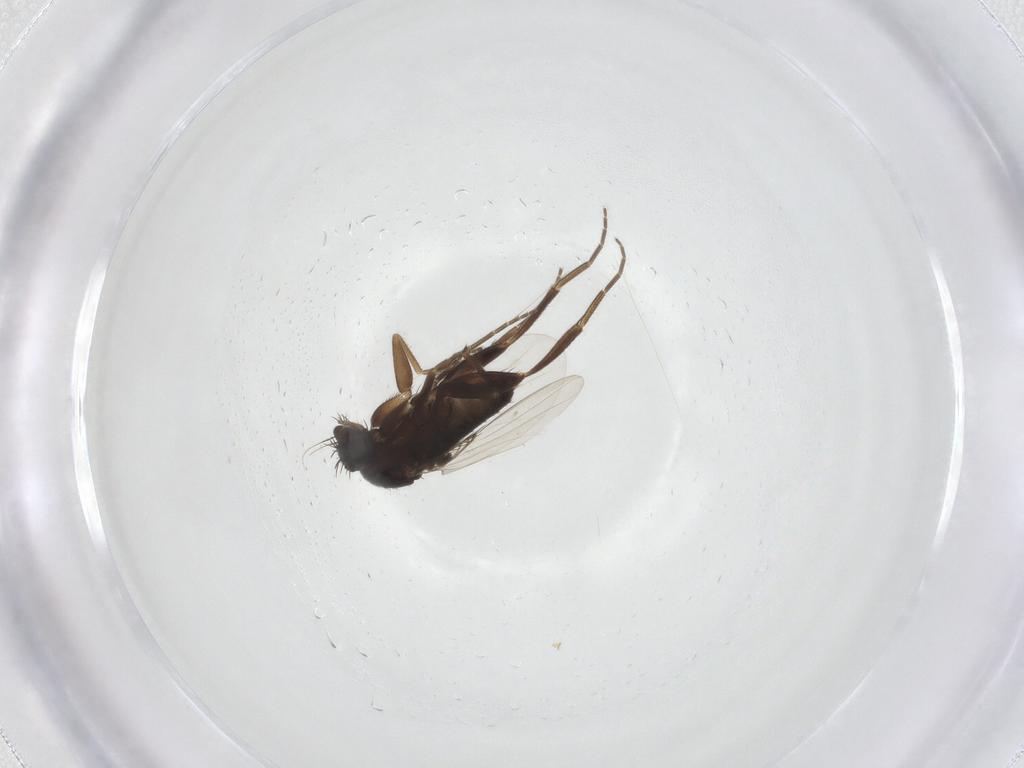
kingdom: Animalia
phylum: Arthropoda
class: Insecta
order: Diptera
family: Phoridae
